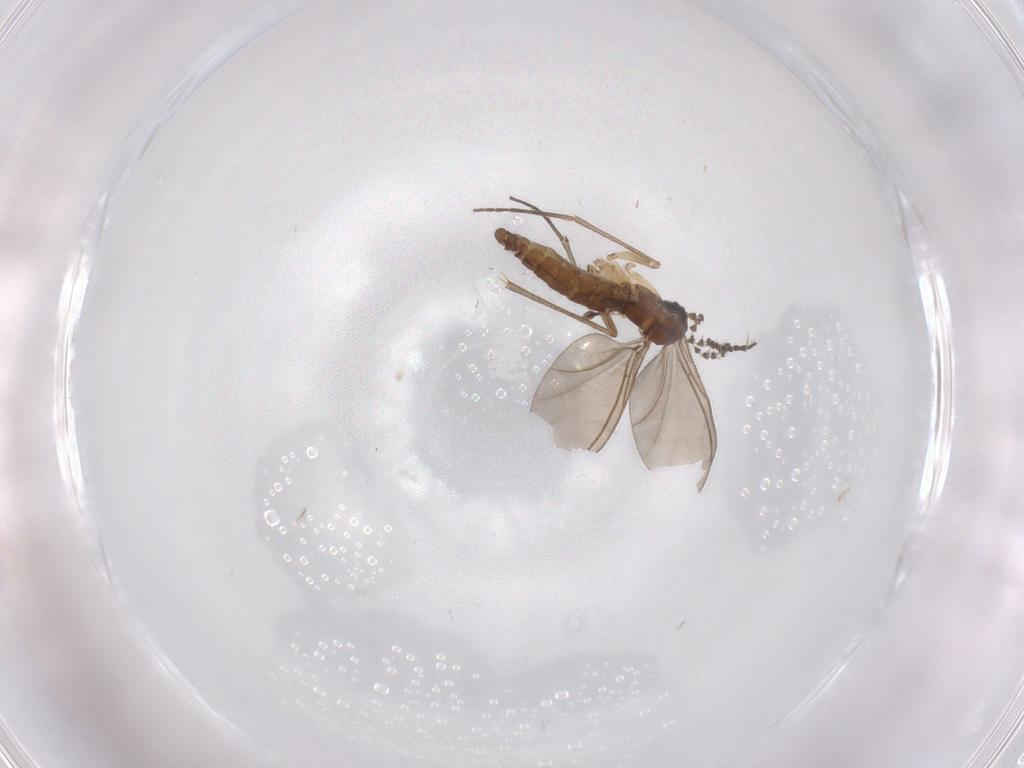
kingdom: Animalia
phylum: Arthropoda
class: Insecta
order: Diptera
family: Sciaridae
